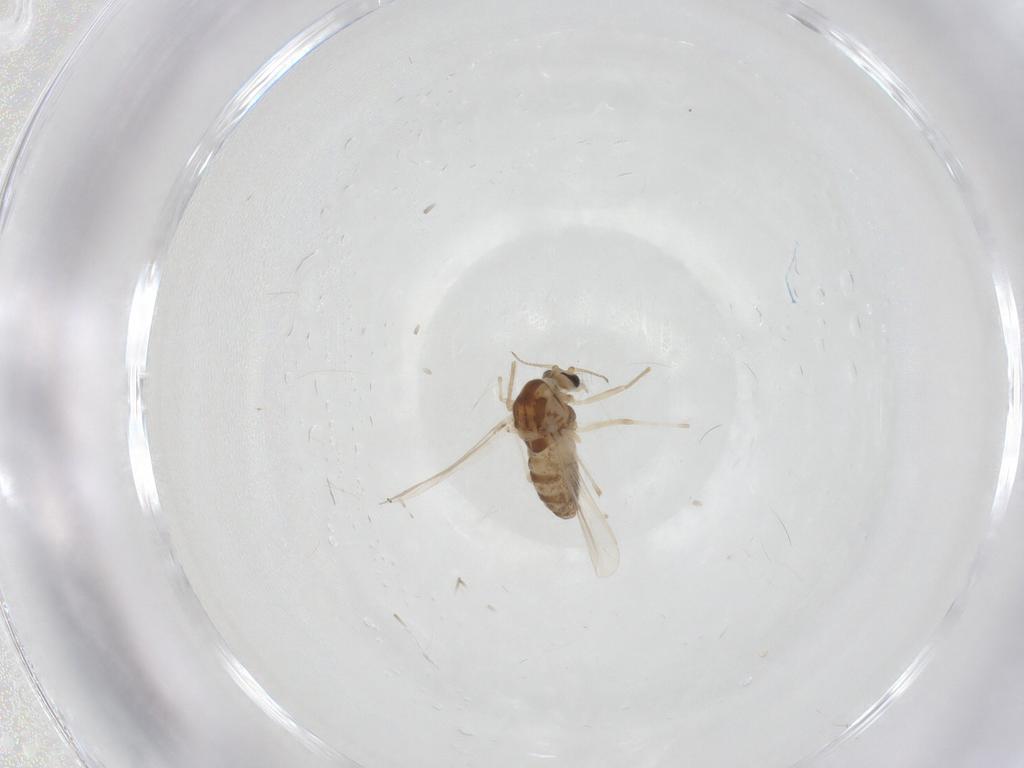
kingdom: Animalia
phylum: Arthropoda
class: Insecta
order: Diptera
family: Chironomidae
